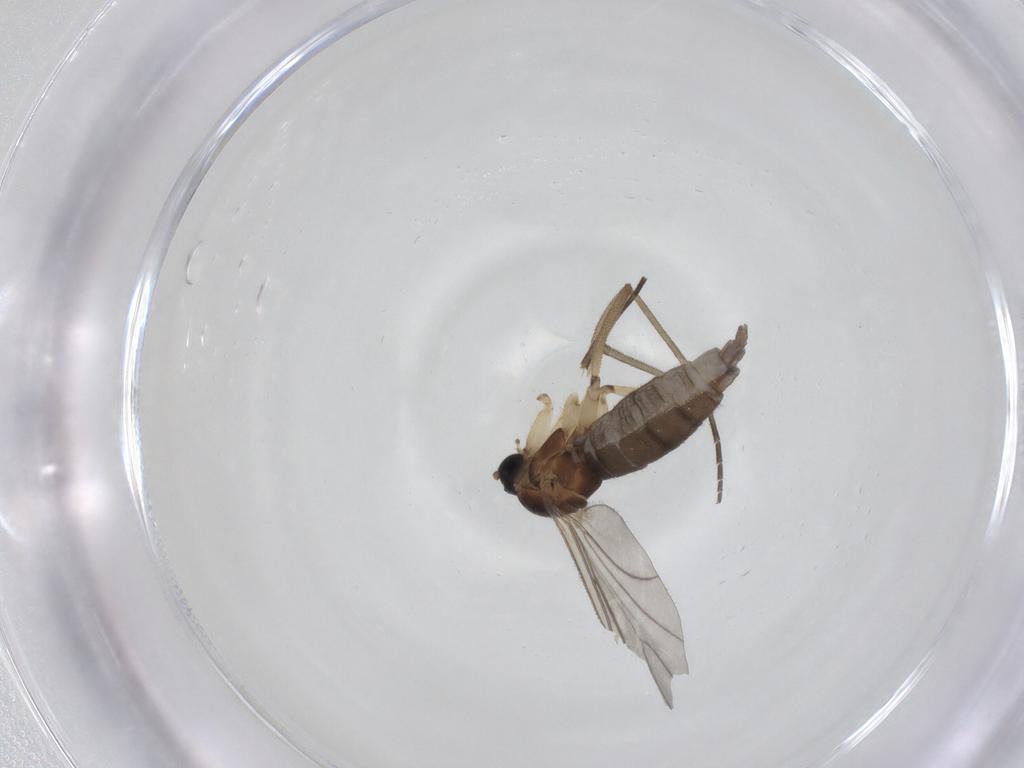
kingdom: Animalia
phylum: Arthropoda
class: Insecta
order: Diptera
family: Sciaridae
